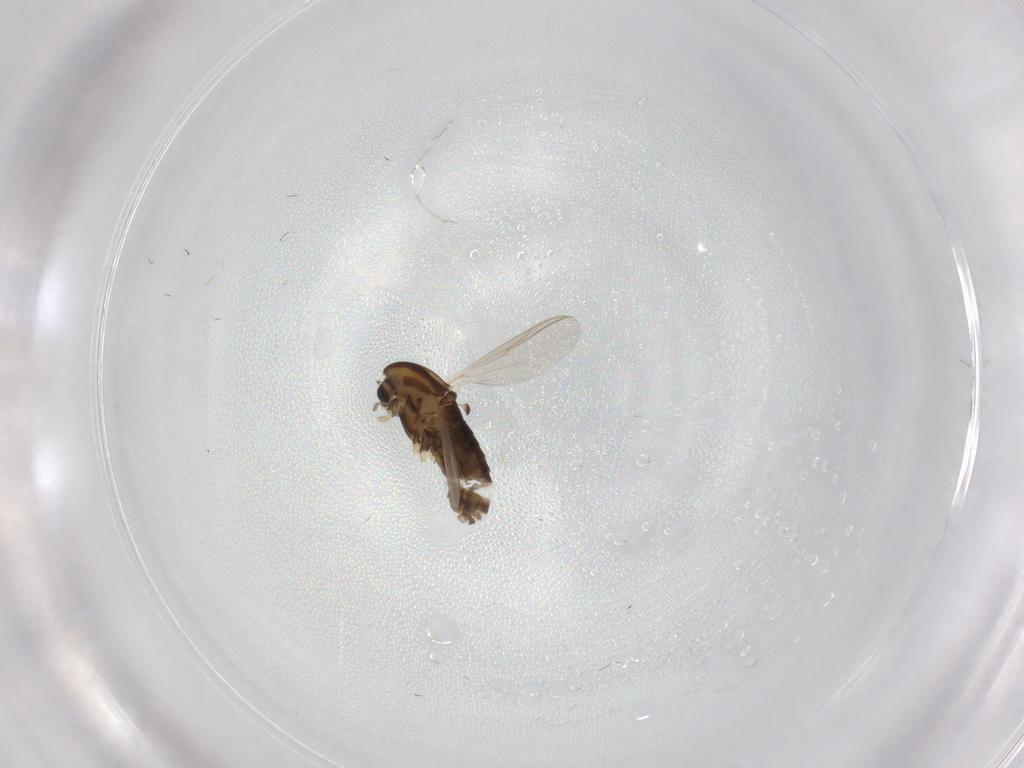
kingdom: Animalia
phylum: Arthropoda
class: Insecta
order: Diptera
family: Chironomidae
